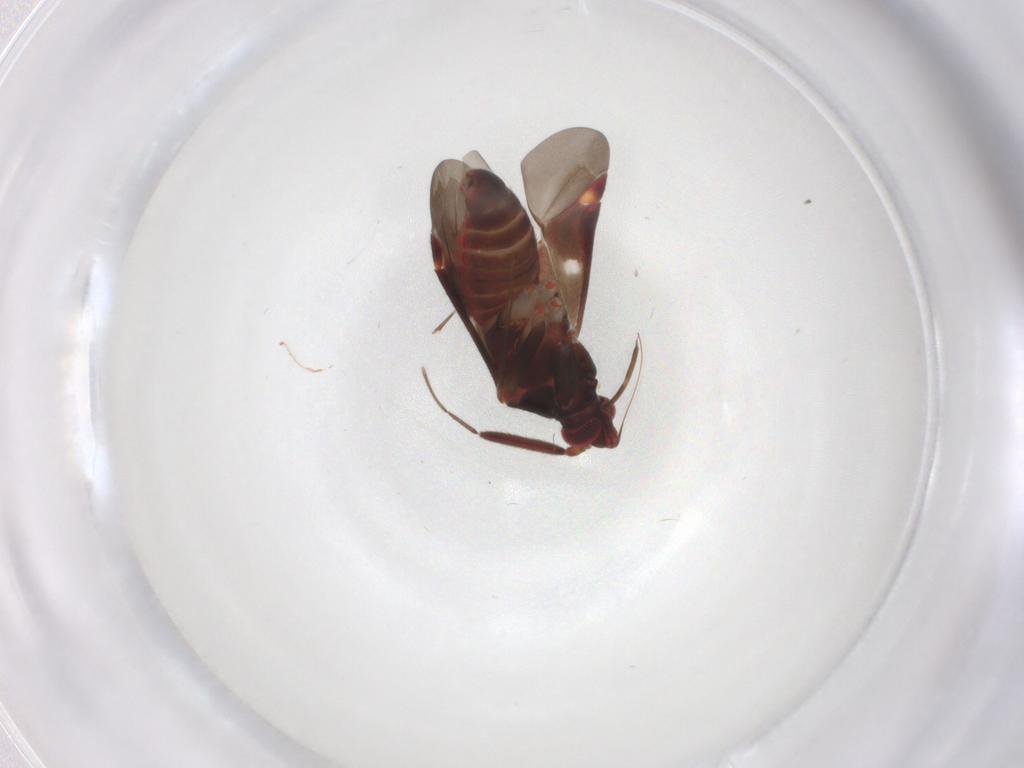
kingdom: Animalia
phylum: Arthropoda
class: Insecta
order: Hemiptera
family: Miridae
